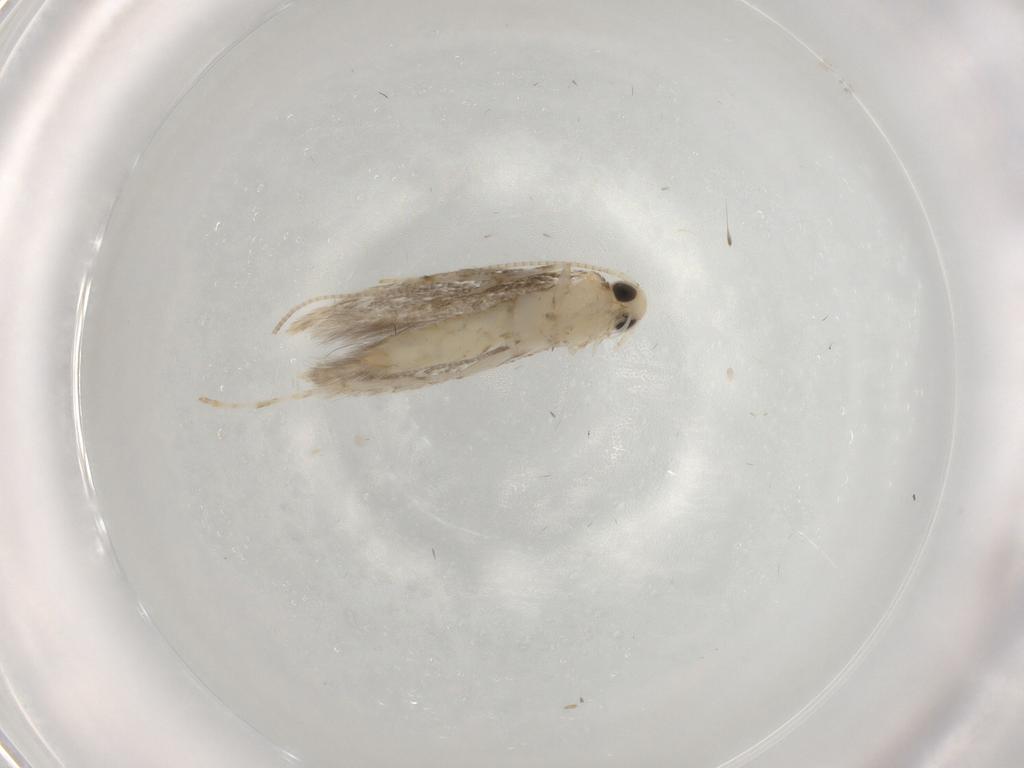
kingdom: Animalia
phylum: Arthropoda
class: Insecta
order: Lepidoptera
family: Gracillariidae
